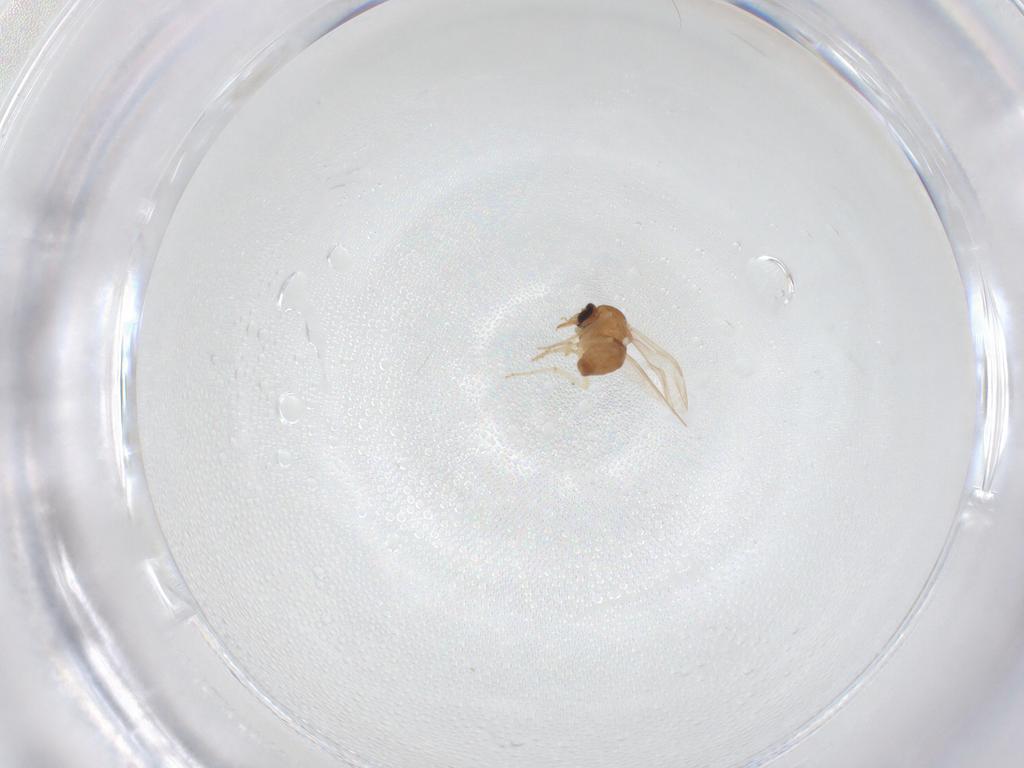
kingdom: Animalia
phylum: Arthropoda
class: Insecta
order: Diptera
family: Ceratopogonidae
